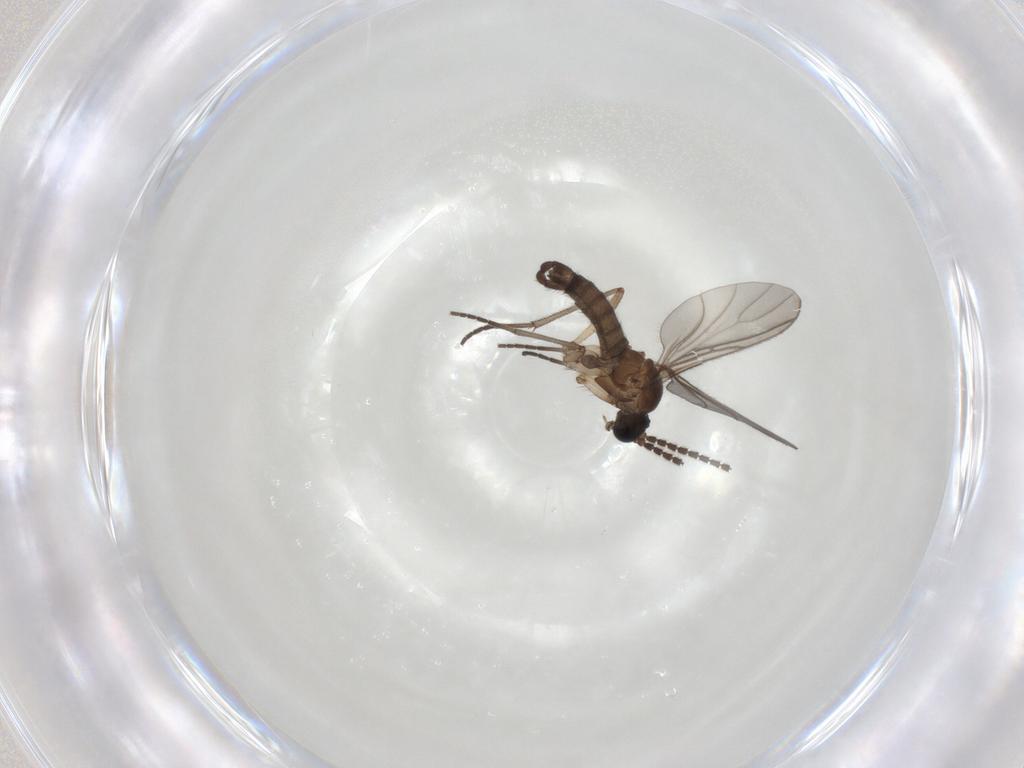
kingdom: Animalia
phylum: Arthropoda
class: Insecta
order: Diptera
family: Sciaridae
